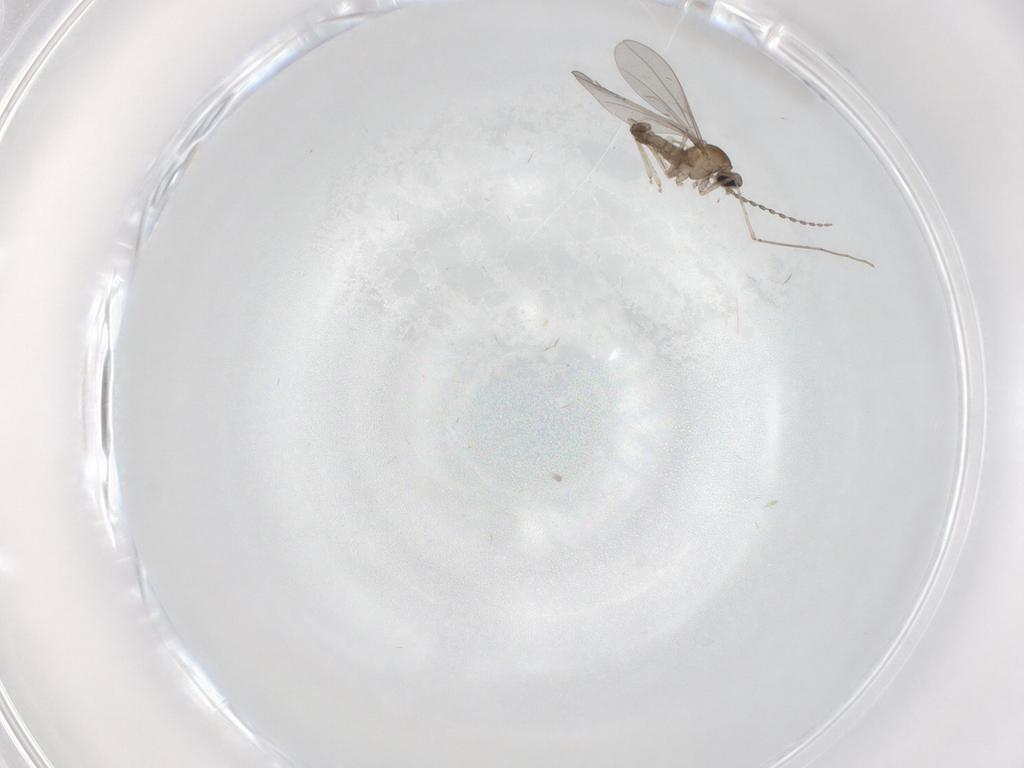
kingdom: Animalia
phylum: Arthropoda
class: Insecta
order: Diptera
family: Cecidomyiidae
